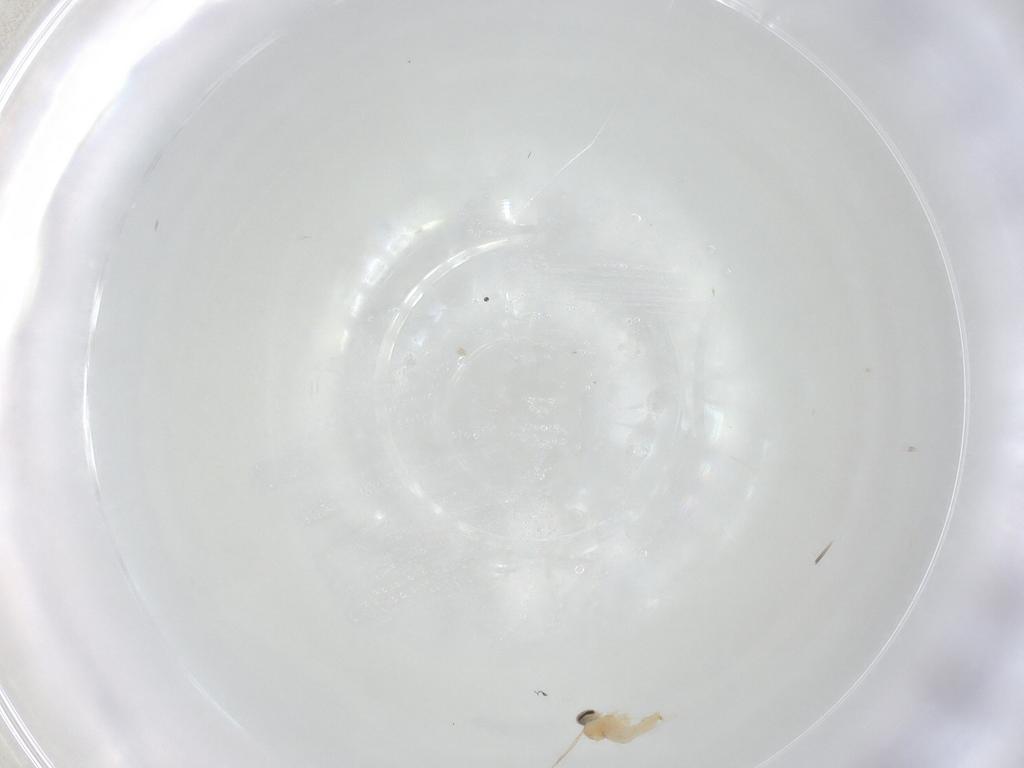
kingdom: Animalia
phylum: Arthropoda
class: Insecta
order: Diptera
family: Cecidomyiidae
